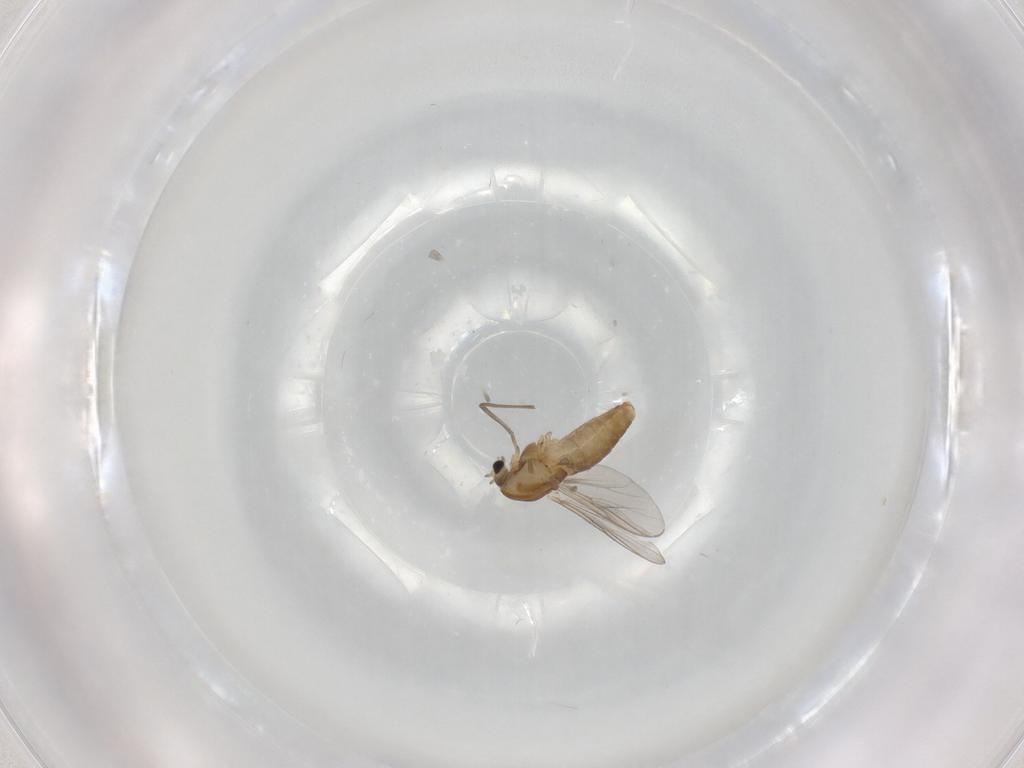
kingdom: Animalia
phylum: Arthropoda
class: Insecta
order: Diptera
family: Chironomidae
